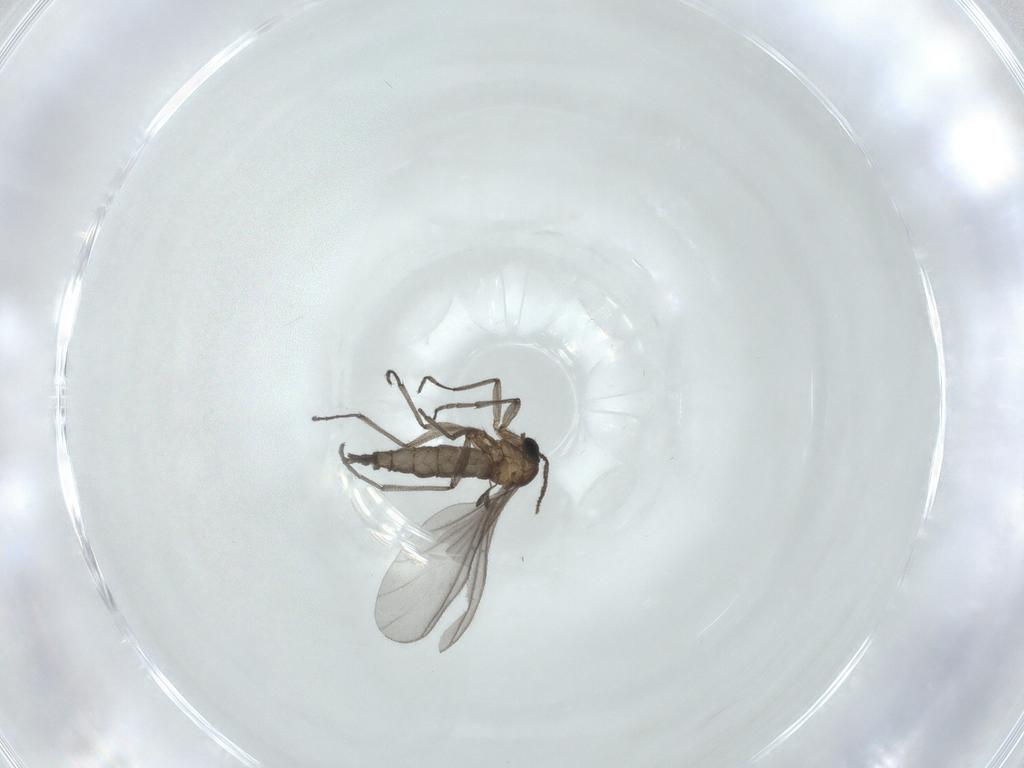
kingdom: Animalia
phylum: Arthropoda
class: Insecta
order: Diptera
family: Sciaridae
